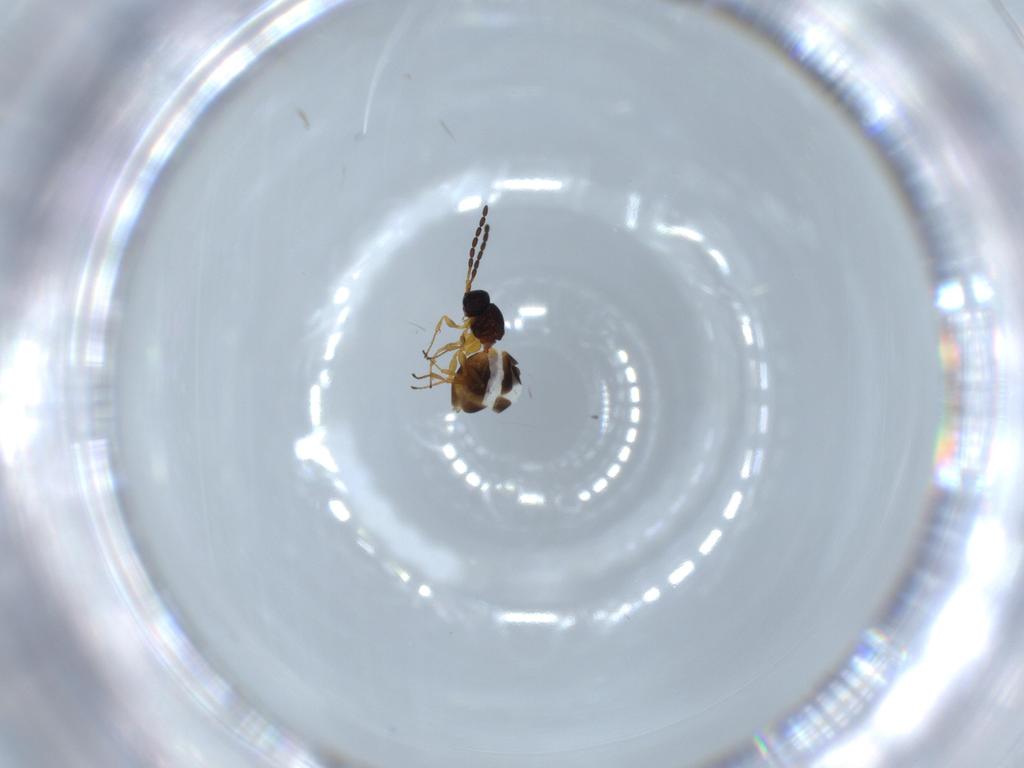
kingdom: Animalia
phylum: Arthropoda
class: Insecta
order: Hymenoptera
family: Figitidae
